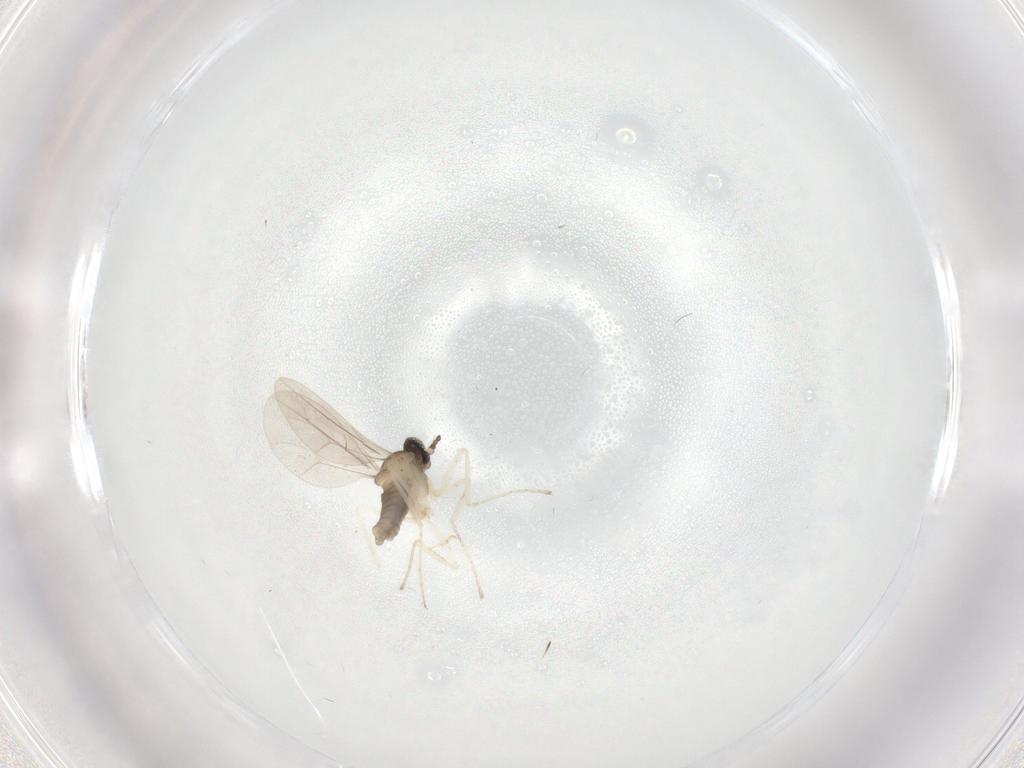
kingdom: Animalia
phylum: Arthropoda
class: Insecta
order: Diptera
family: Cecidomyiidae
